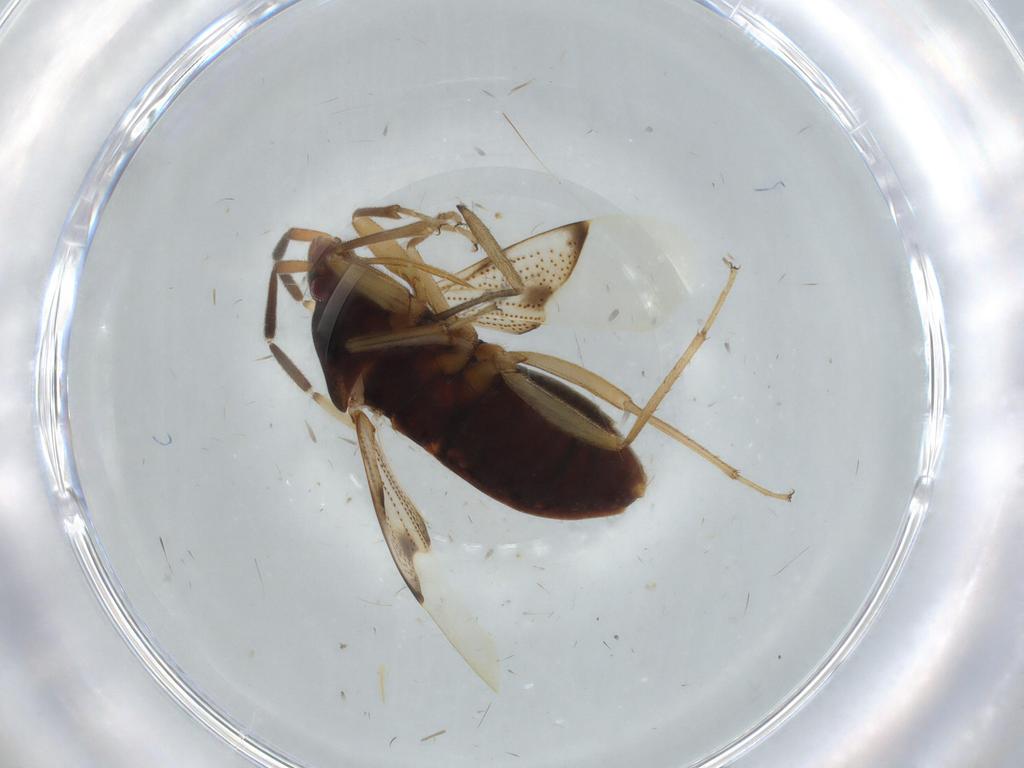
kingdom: Animalia
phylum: Arthropoda
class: Insecta
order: Hemiptera
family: Rhyparochromidae
